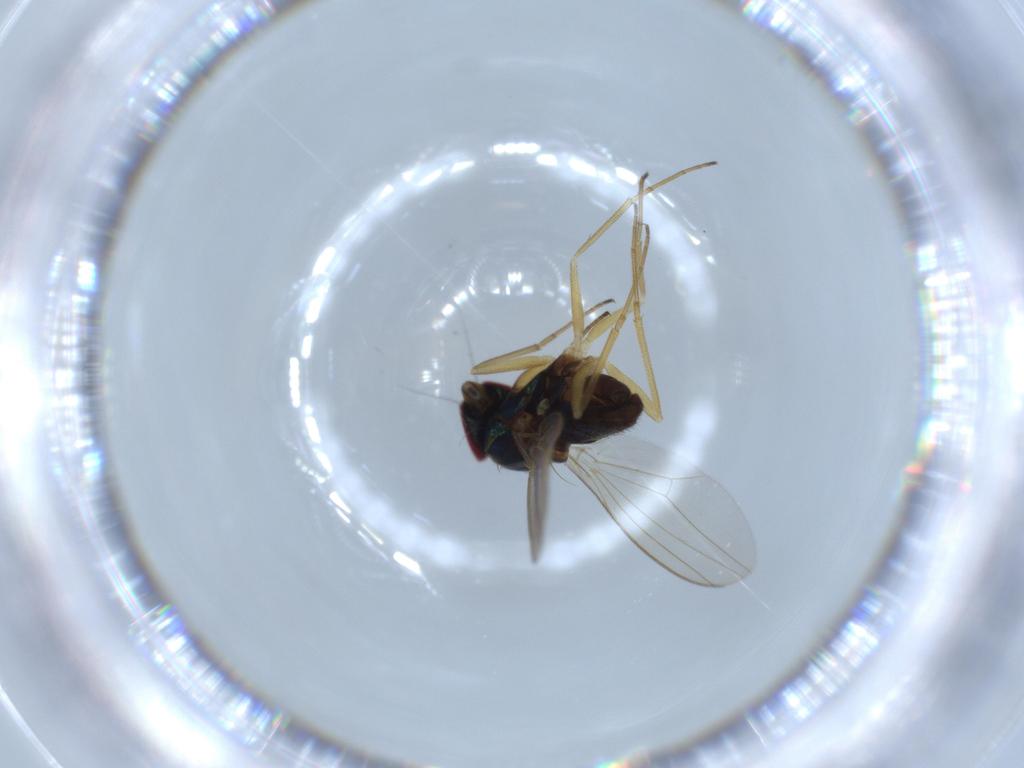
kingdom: Animalia
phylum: Arthropoda
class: Insecta
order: Diptera
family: Dolichopodidae
